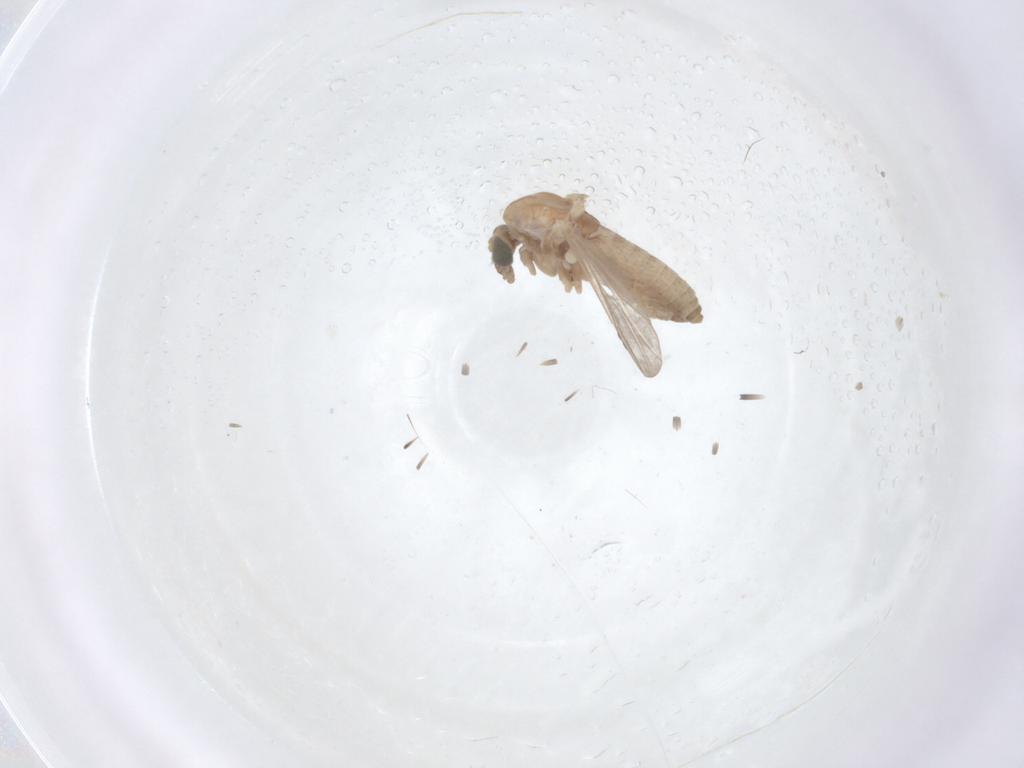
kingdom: Animalia
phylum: Arthropoda
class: Insecta
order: Diptera
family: Chironomidae
